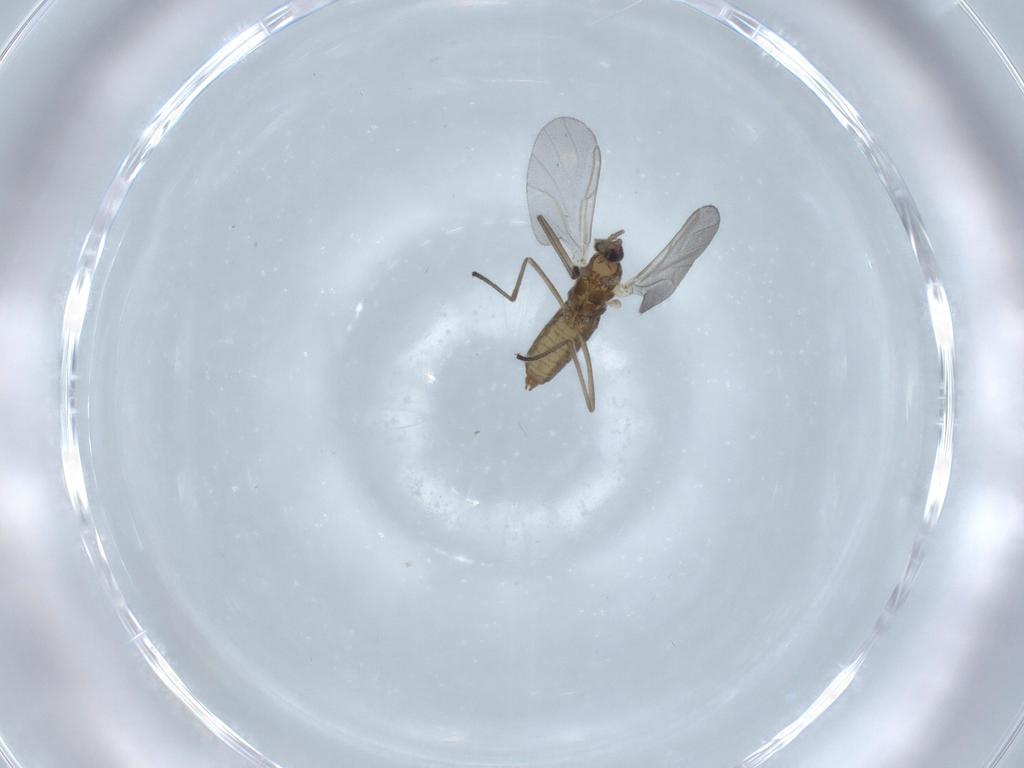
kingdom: Animalia
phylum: Arthropoda
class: Insecta
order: Diptera
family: Cecidomyiidae
